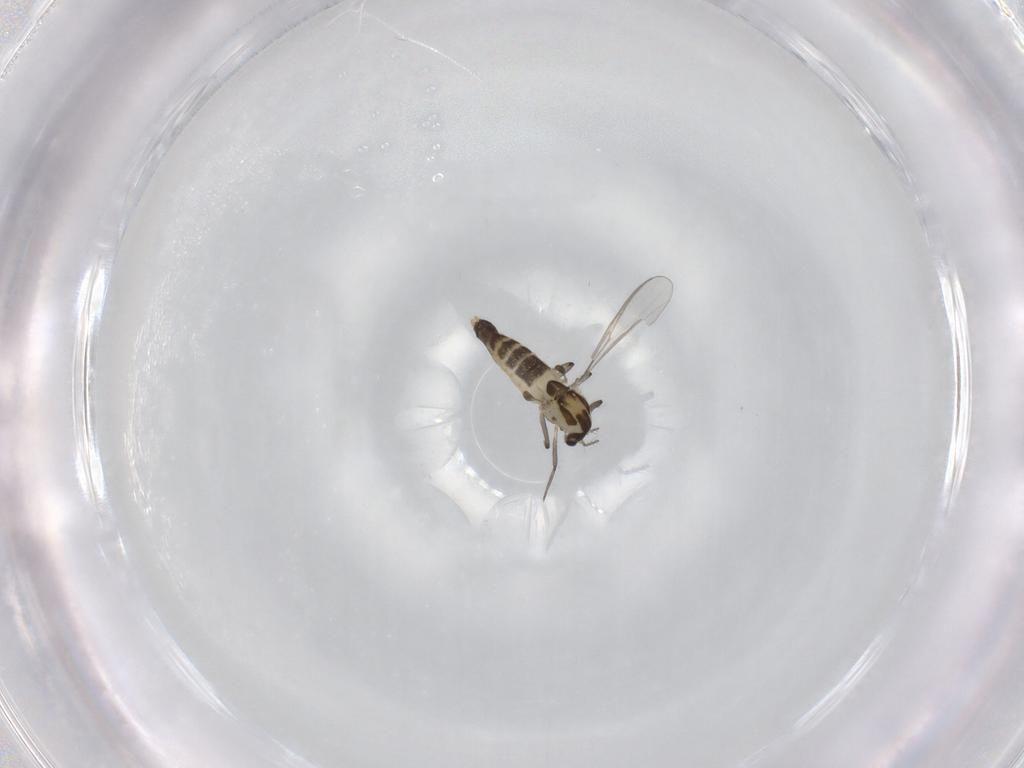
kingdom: Animalia
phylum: Arthropoda
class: Insecta
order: Diptera
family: Chironomidae
